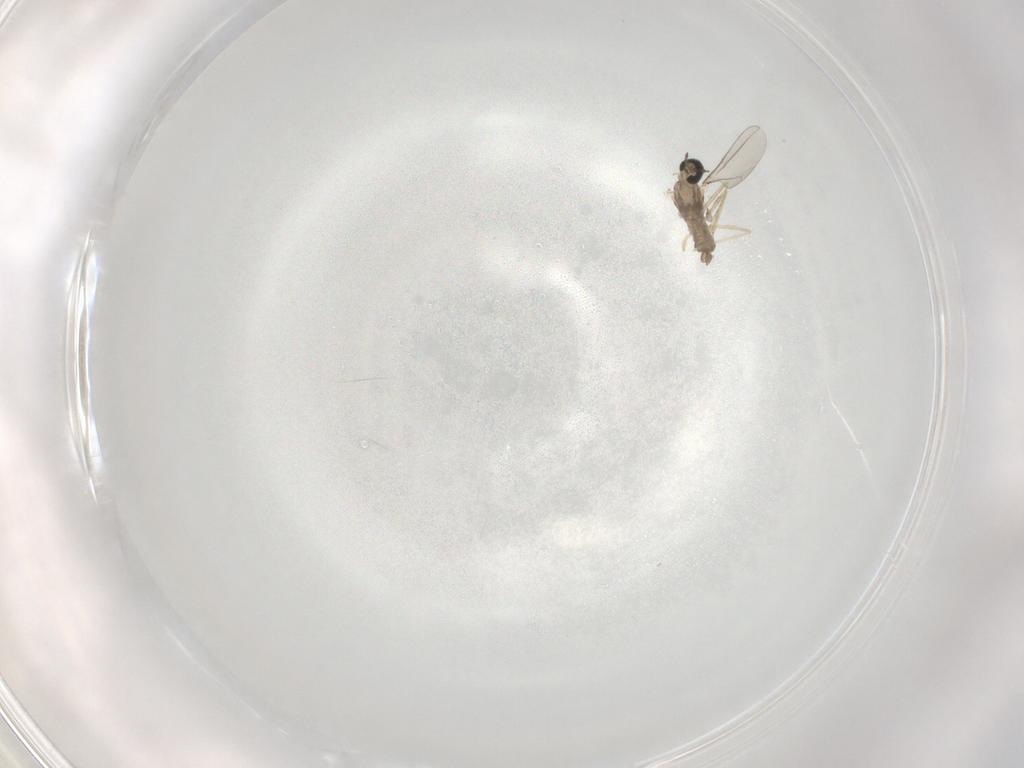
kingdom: Animalia
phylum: Arthropoda
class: Insecta
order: Diptera
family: Cecidomyiidae
